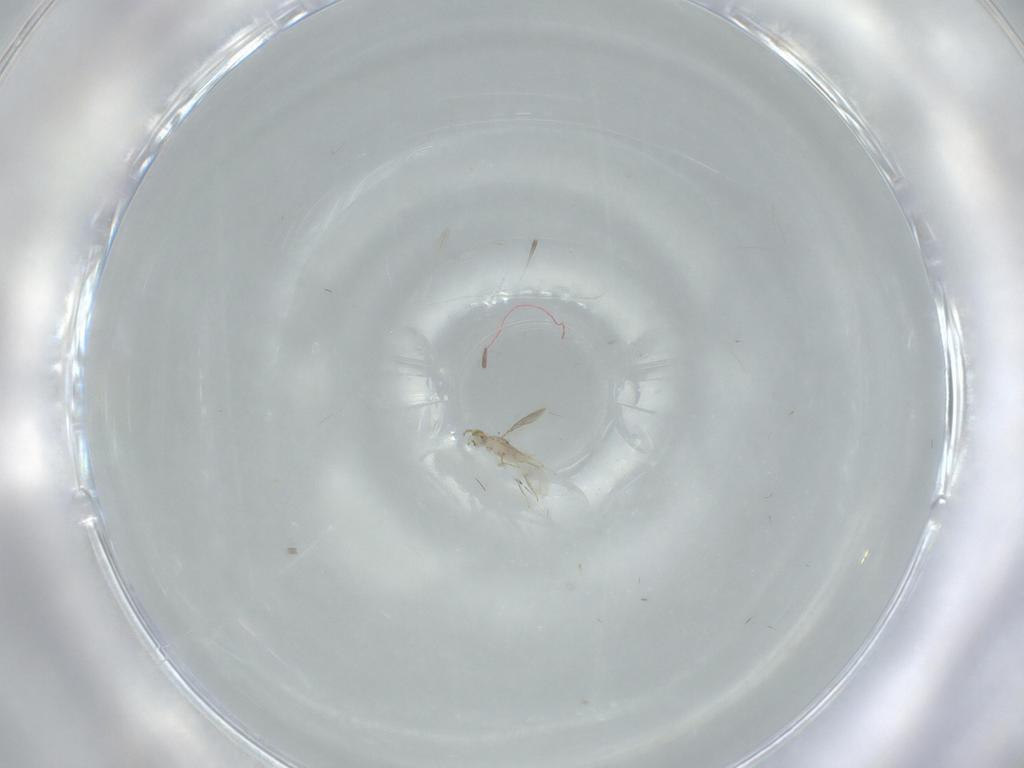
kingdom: Animalia
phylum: Arthropoda
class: Insecta
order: Hymenoptera
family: Aphelinidae
